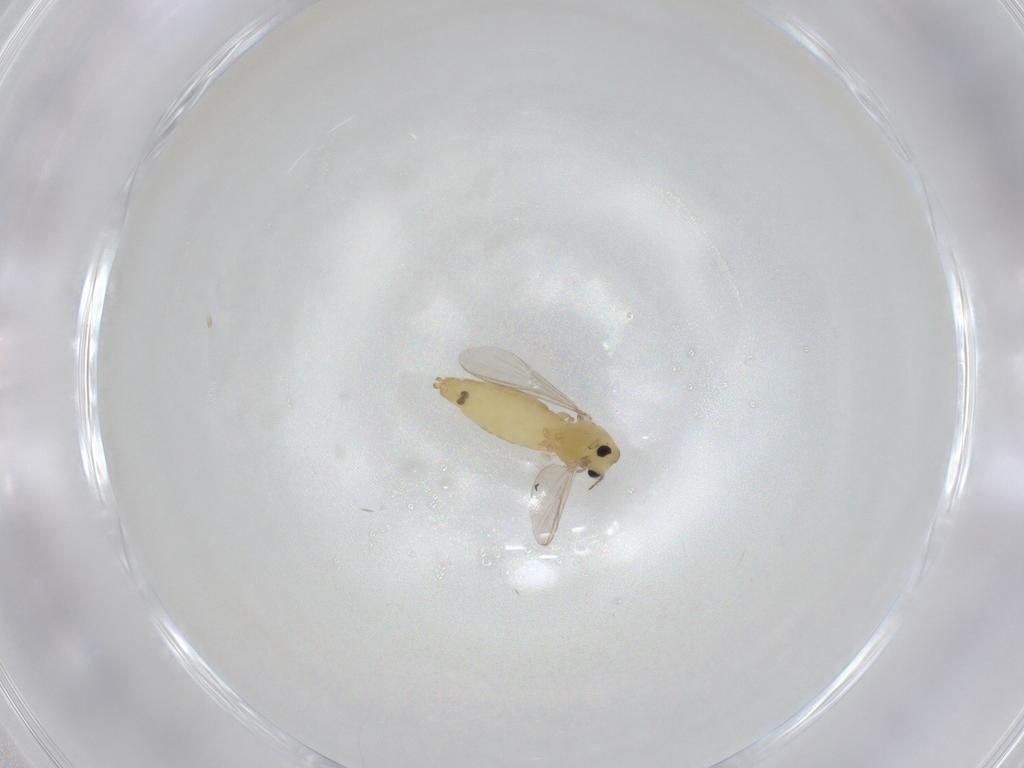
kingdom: Animalia
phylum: Arthropoda
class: Insecta
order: Diptera
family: Chironomidae
